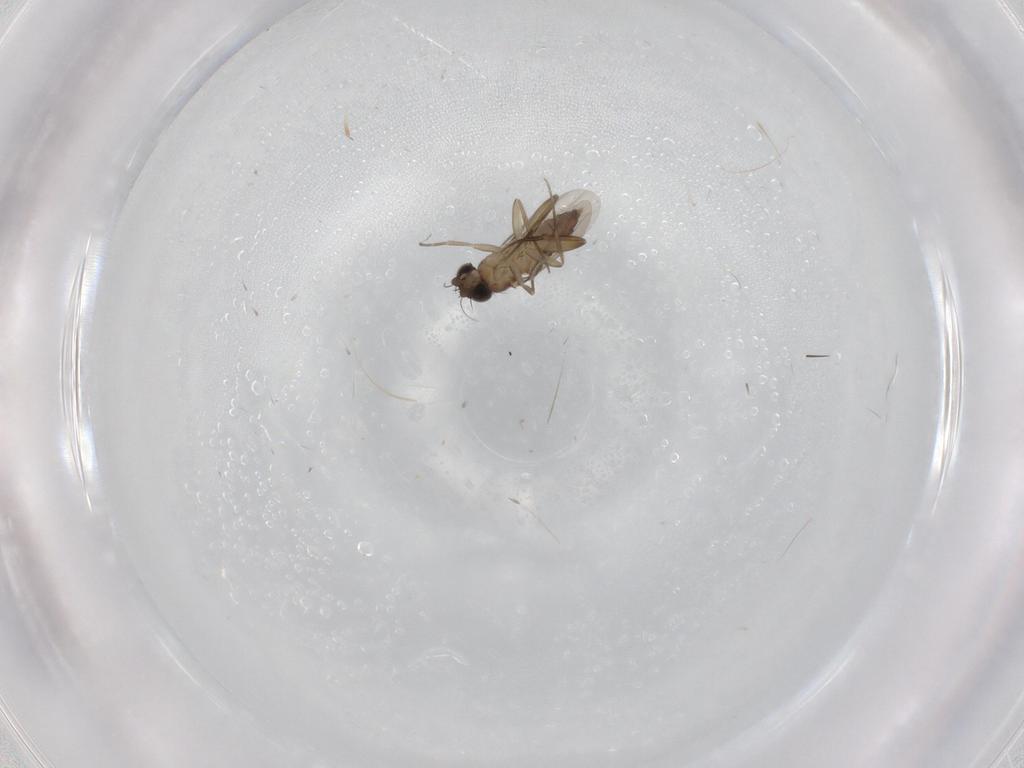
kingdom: Animalia
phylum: Arthropoda
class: Insecta
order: Diptera
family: Phoridae
